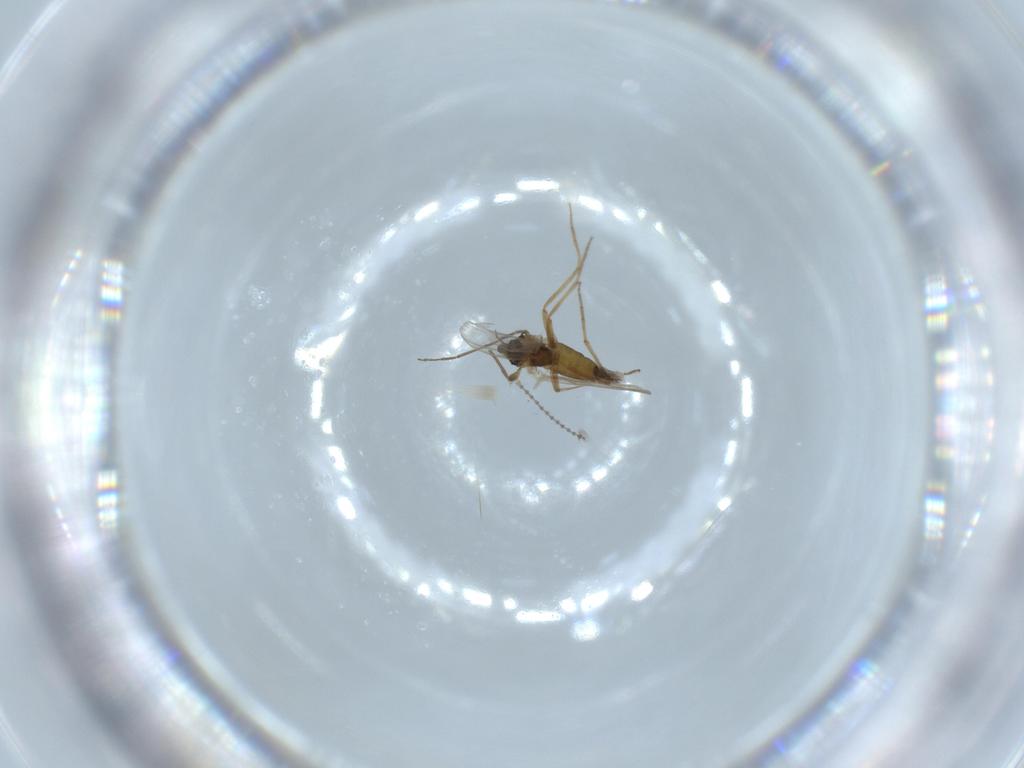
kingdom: Animalia
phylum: Arthropoda
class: Insecta
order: Diptera
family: Cecidomyiidae
